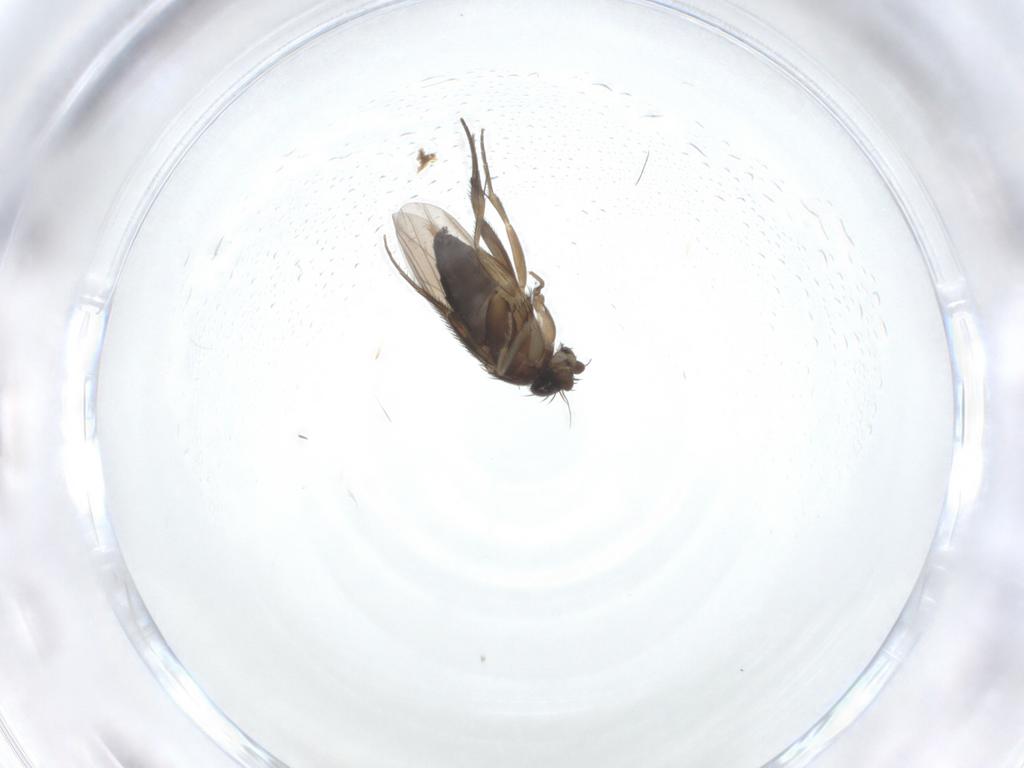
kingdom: Animalia
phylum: Arthropoda
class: Insecta
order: Diptera
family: Phoridae
